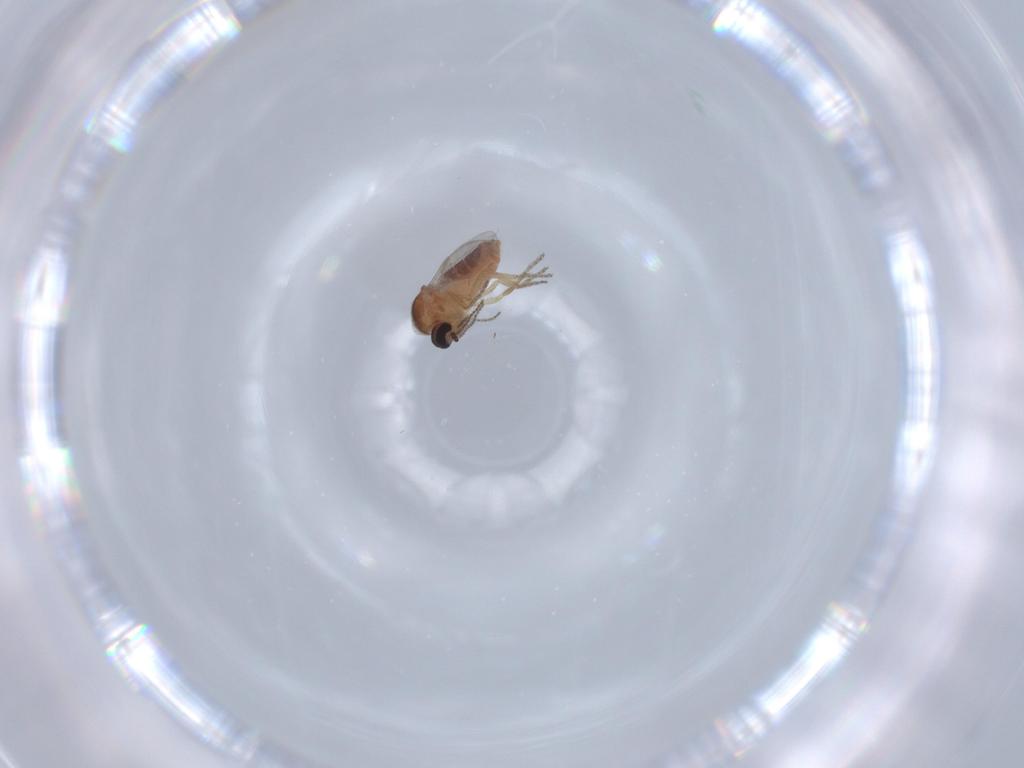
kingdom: Animalia
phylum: Arthropoda
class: Insecta
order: Diptera
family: Ceratopogonidae
